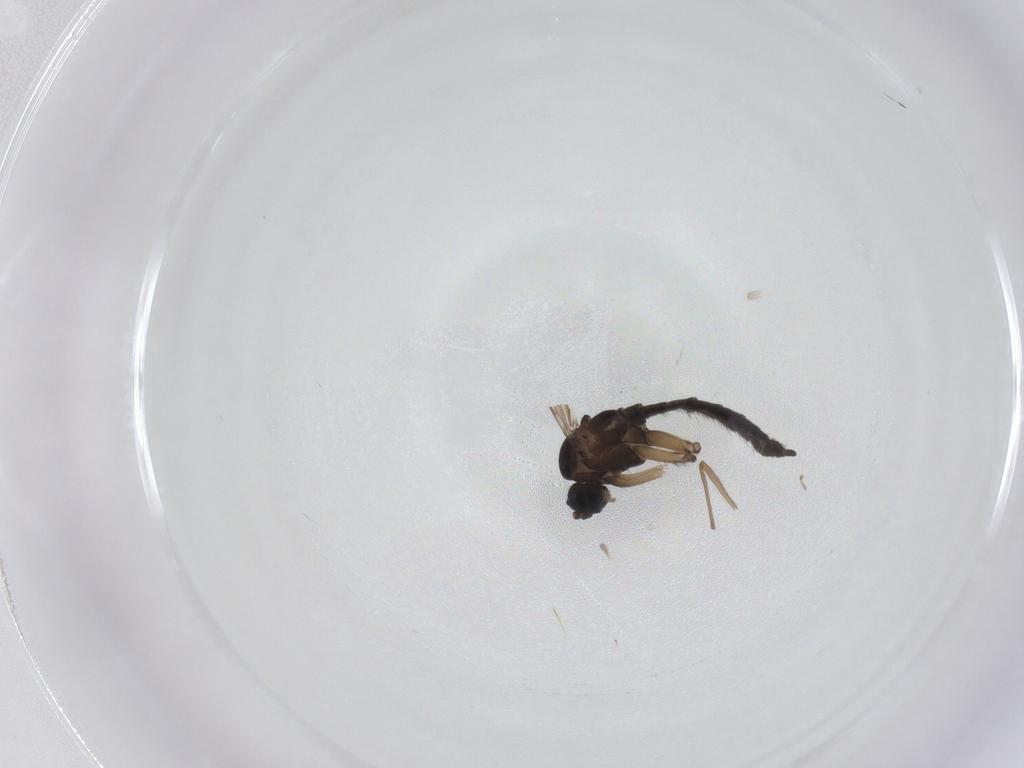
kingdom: Animalia
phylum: Arthropoda
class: Insecta
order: Diptera
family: Sciaridae
